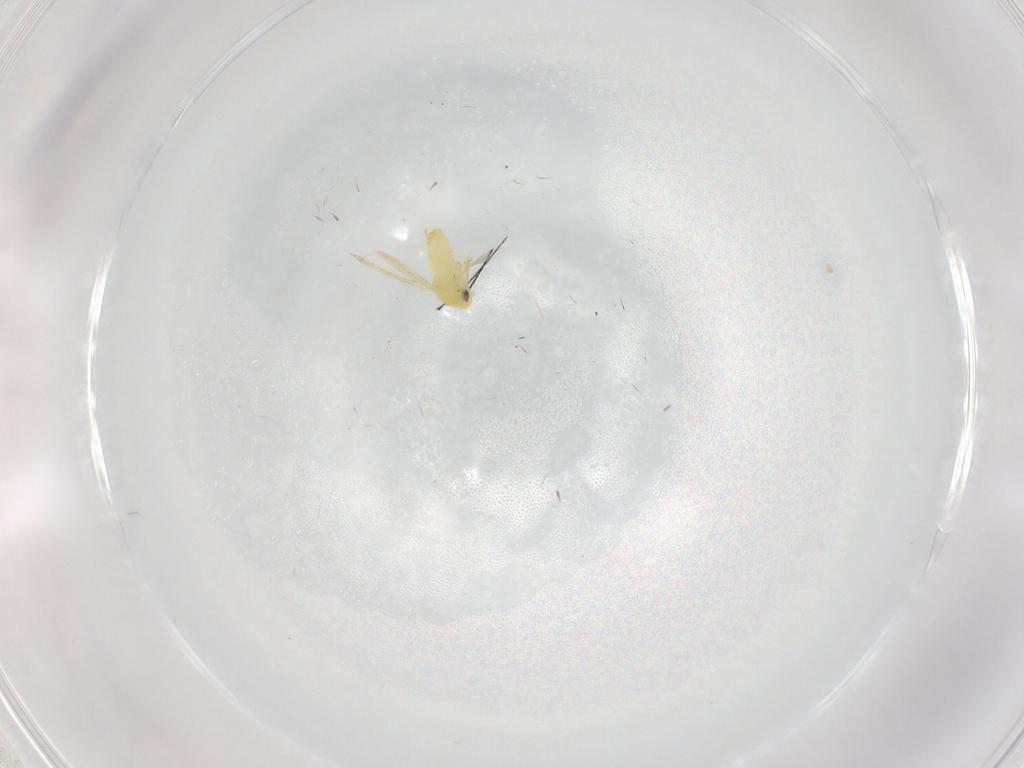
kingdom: Animalia
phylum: Arthropoda
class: Insecta
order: Hemiptera
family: Aleyrodidae
